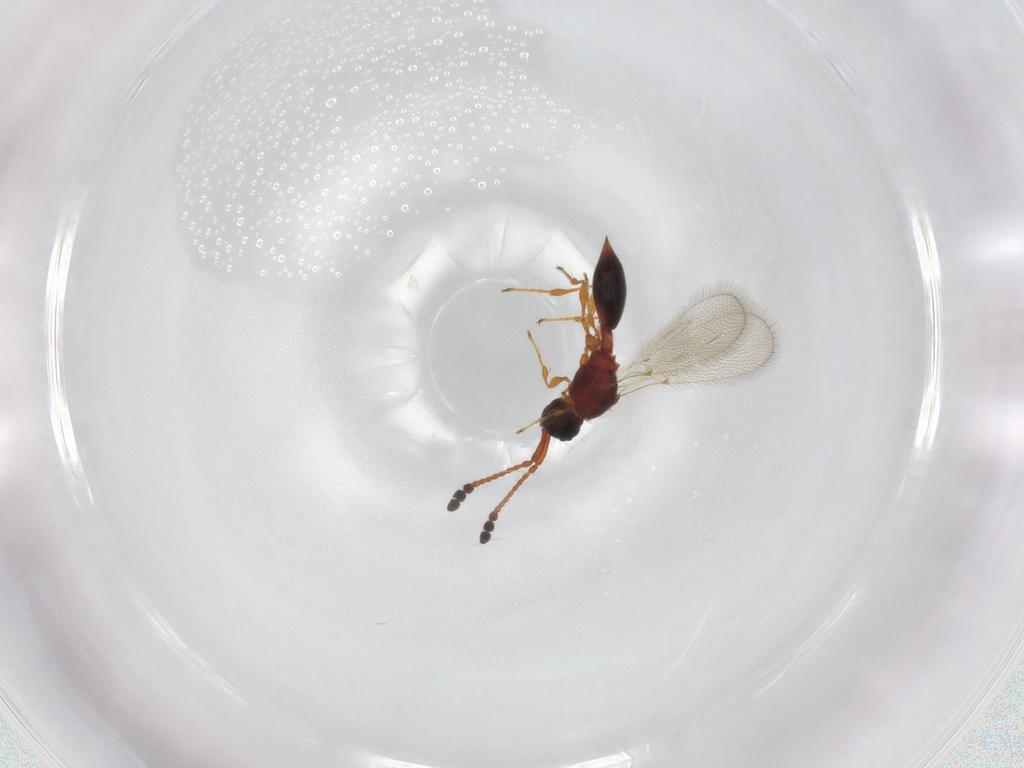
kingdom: Animalia
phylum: Arthropoda
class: Insecta
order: Hymenoptera
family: Diapriidae
